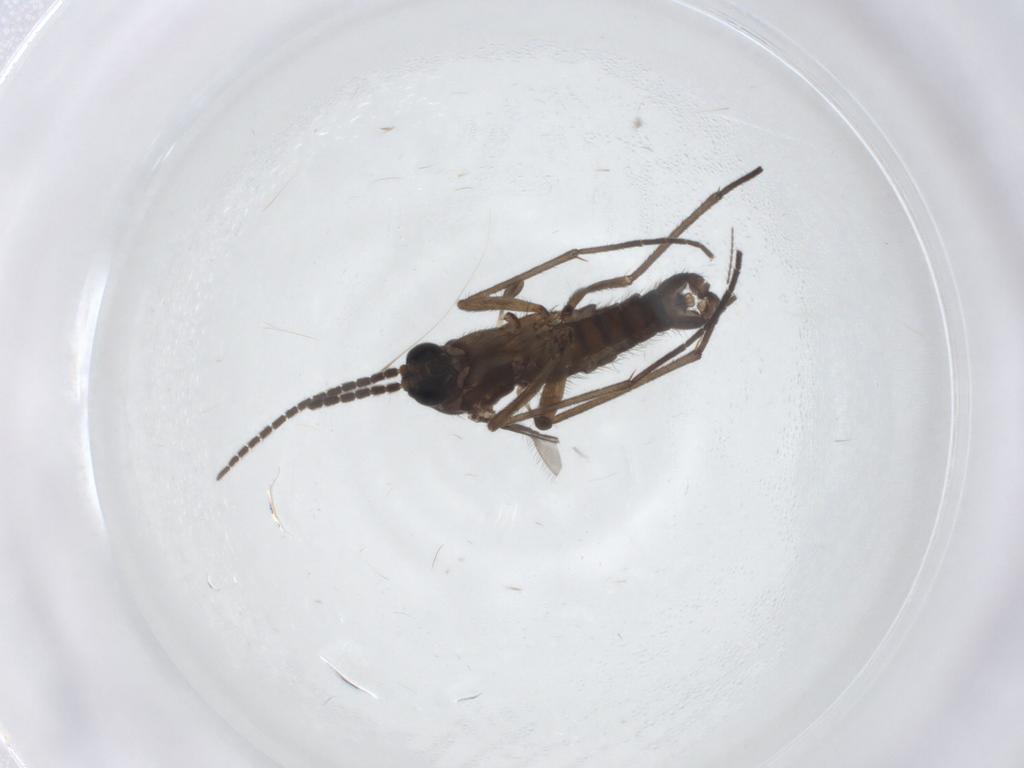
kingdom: Animalia
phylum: Arthropoda
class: Insecta
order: Diptera
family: Sciaridae
